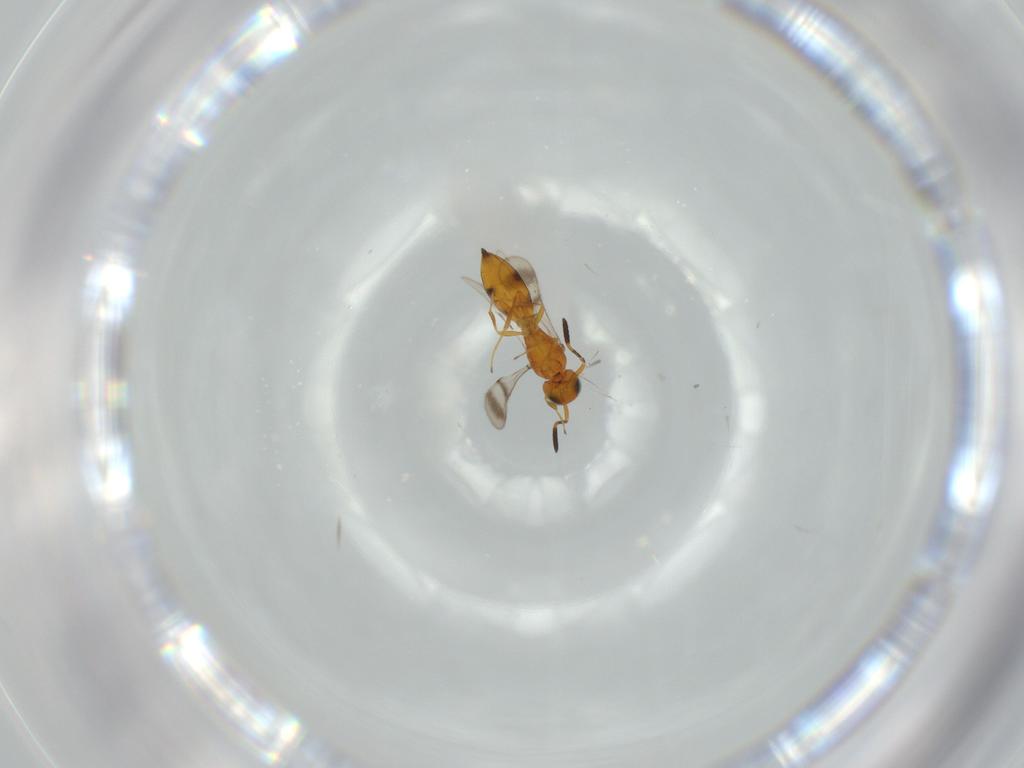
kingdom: Animalia
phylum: Arthropoda
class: Insecta
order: Hymenoptera
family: Scelionidae
